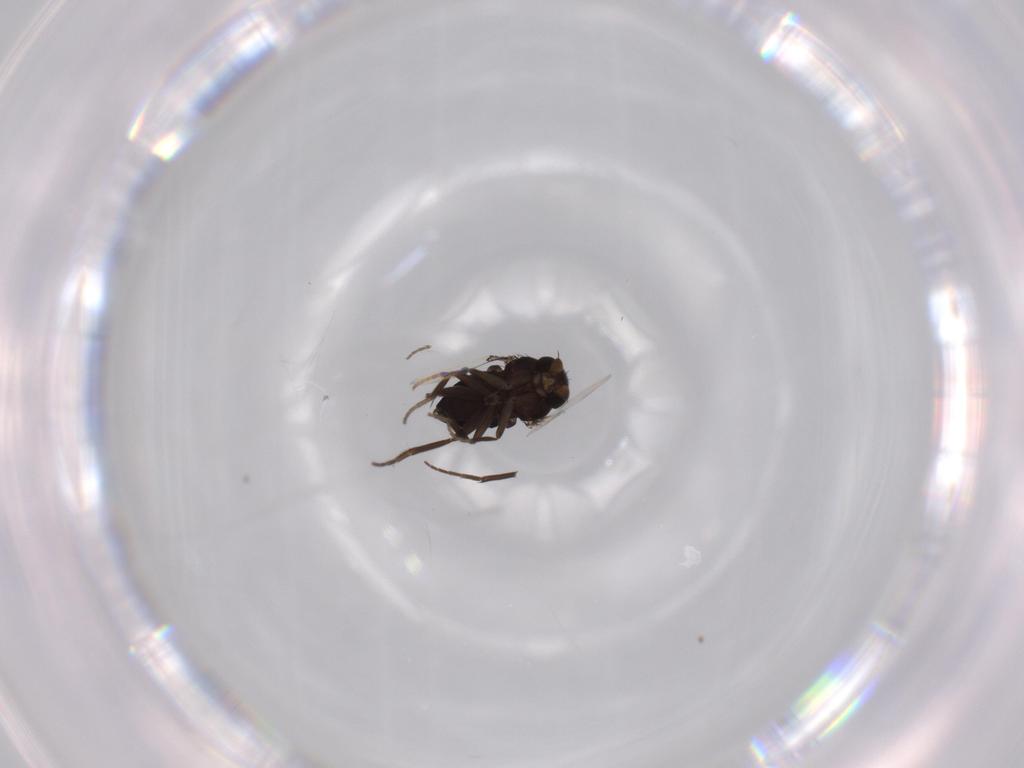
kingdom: Animalia
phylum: Arthropoda
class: Insecta
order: Diptera
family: Phoridae
